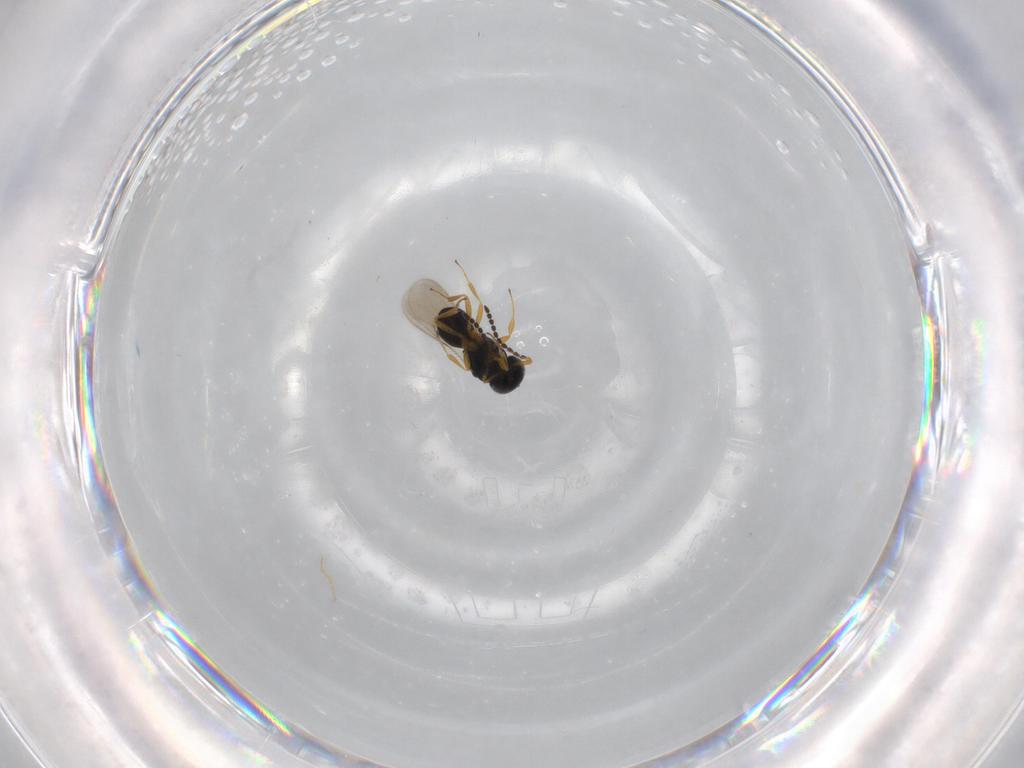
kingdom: Animalia
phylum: Arthropoda
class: Insecta
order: Hymenoptera
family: Scelionidae
